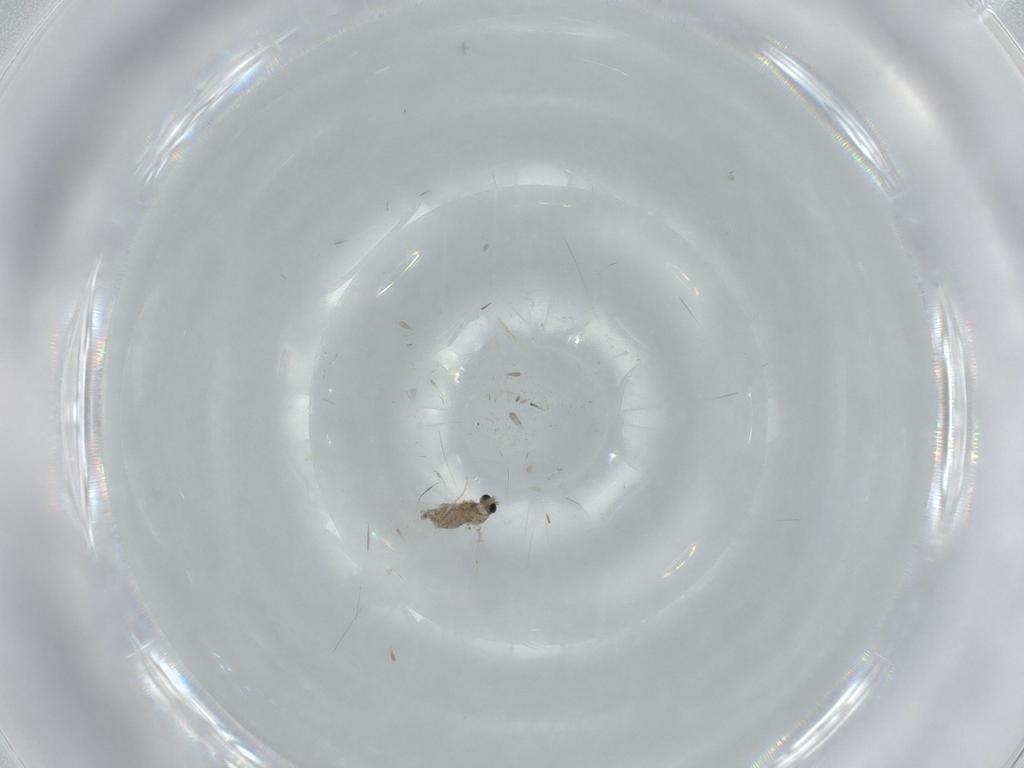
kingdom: Animalia
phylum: Arthropoda
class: Insecta
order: Diptera
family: Cecidomyiidae
